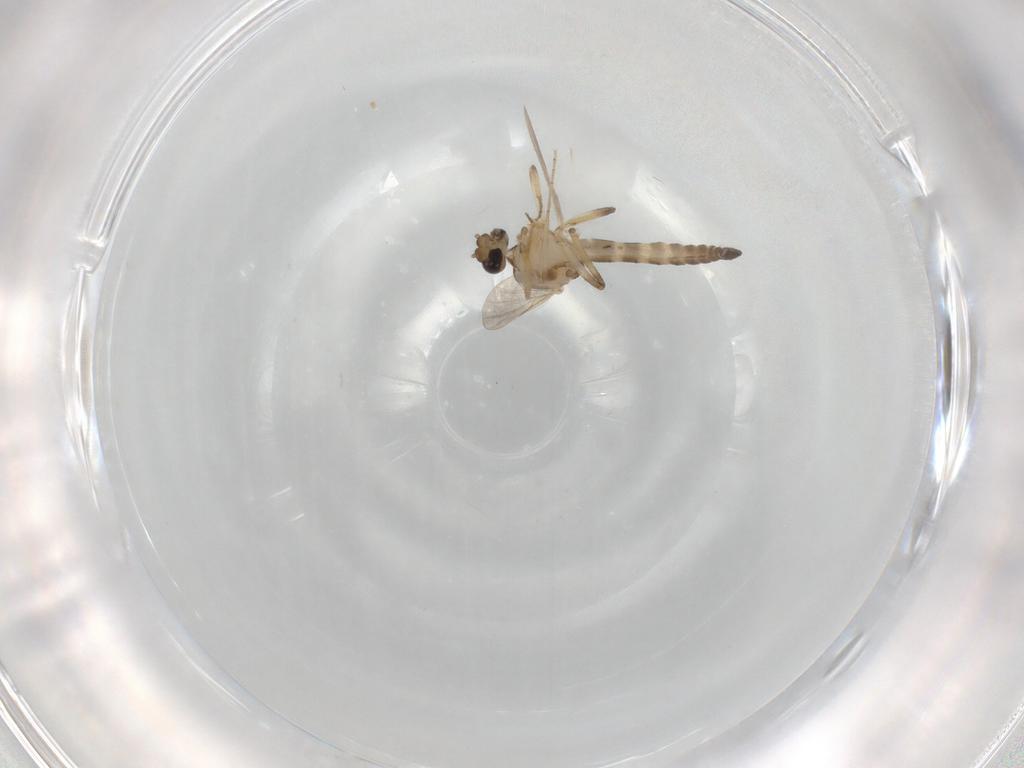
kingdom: Animalia
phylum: Arthropoda
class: Insecta
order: Diptera
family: Ceratopogonidae
